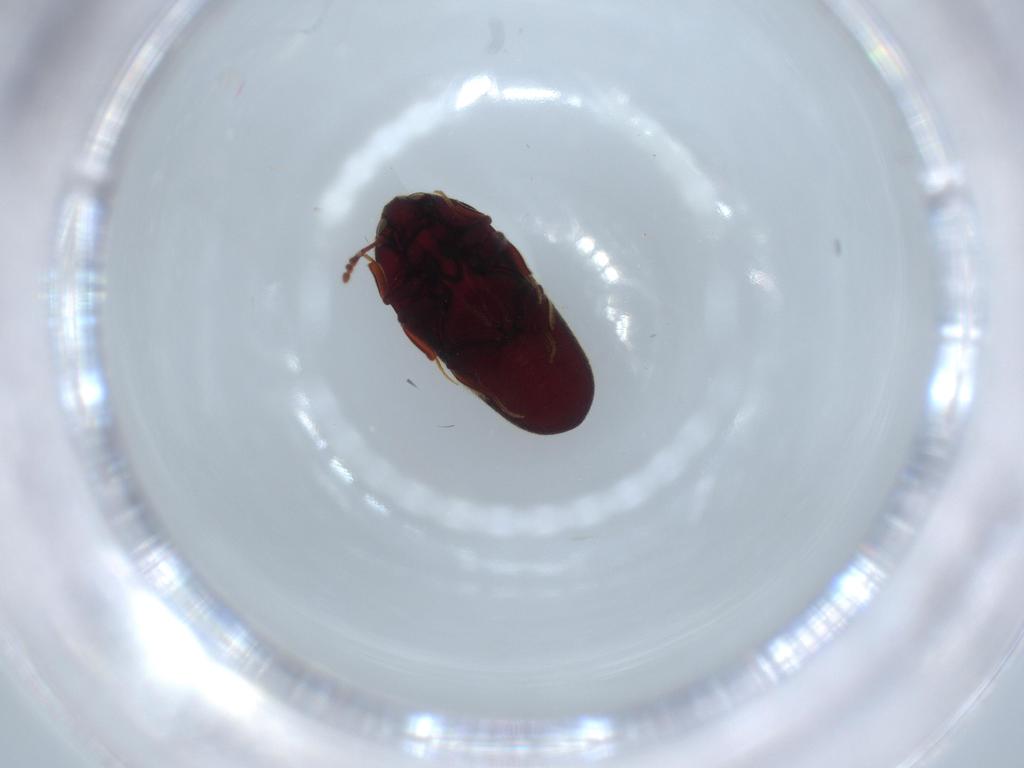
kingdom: Animalia
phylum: Arthropoda
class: Insecta
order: Coleoptera
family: Throscidae
